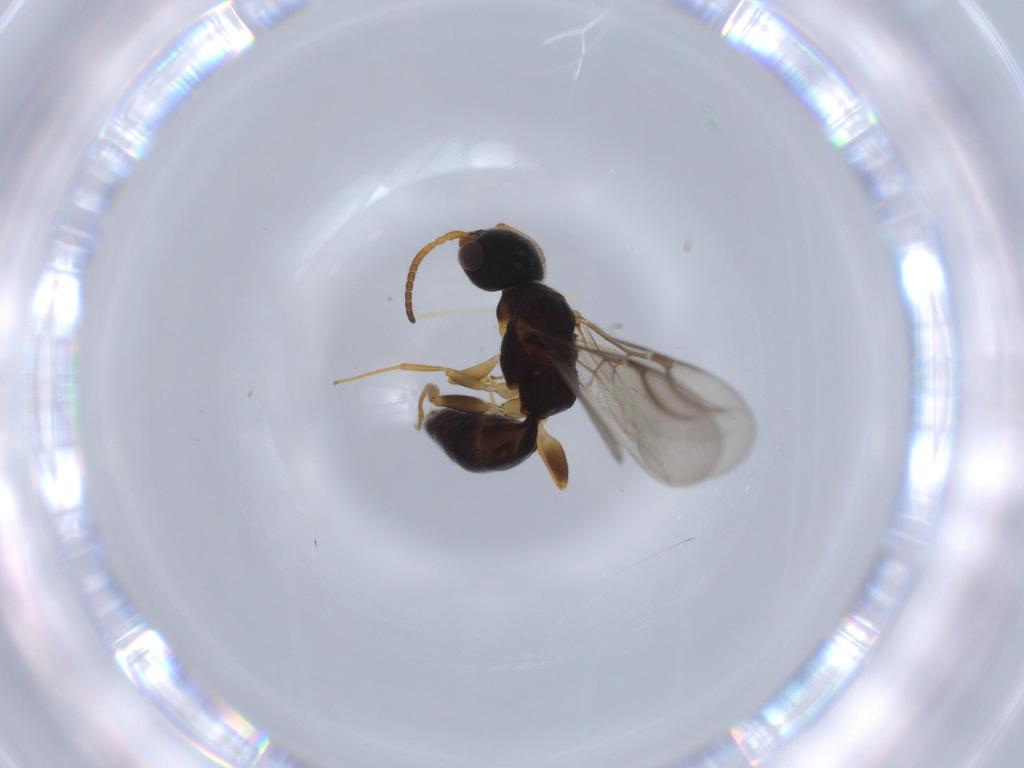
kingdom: Animalia
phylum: Arthropoda
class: Insecta
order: Hymenoptera
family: Bethylidae
